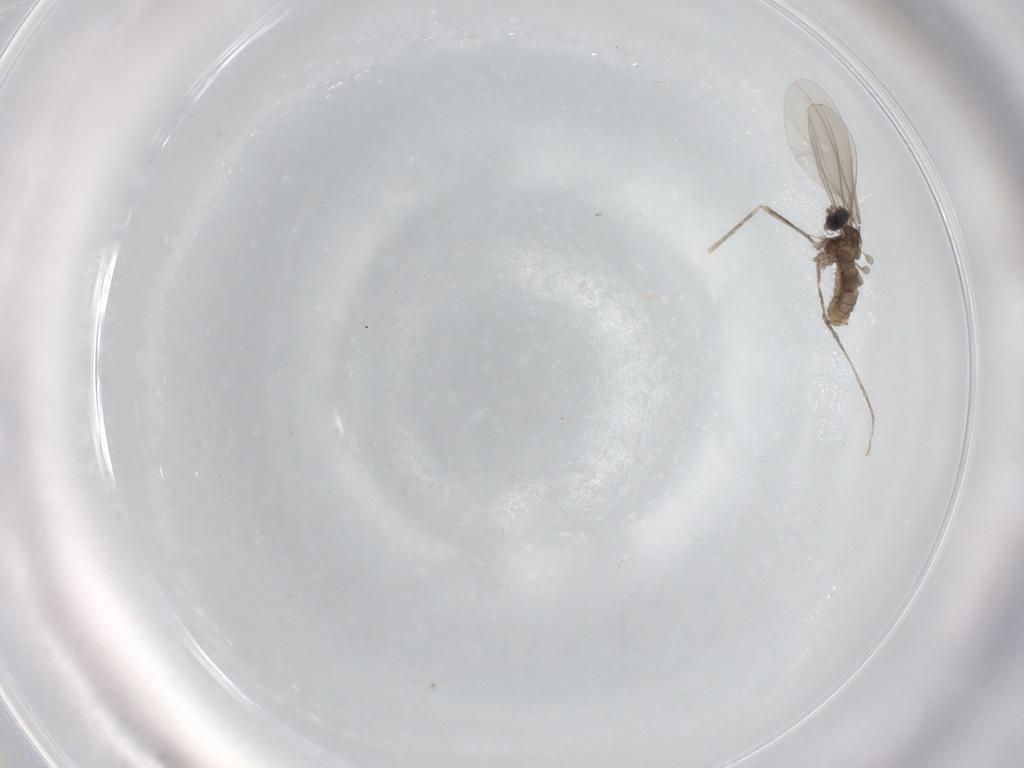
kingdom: Animalia
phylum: Arthropoda
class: Insecta
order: Diptera
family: Cecidomyiidae
